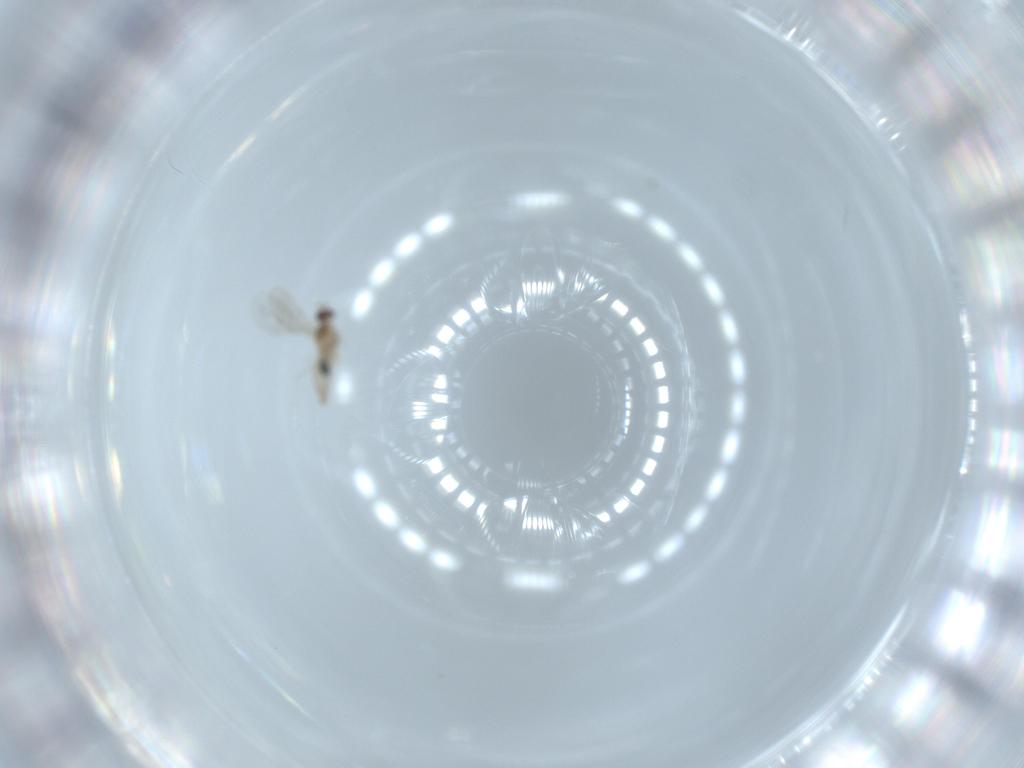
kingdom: Animalia
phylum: Arthropoda
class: Insecta
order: Diptera
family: Sciaridae
